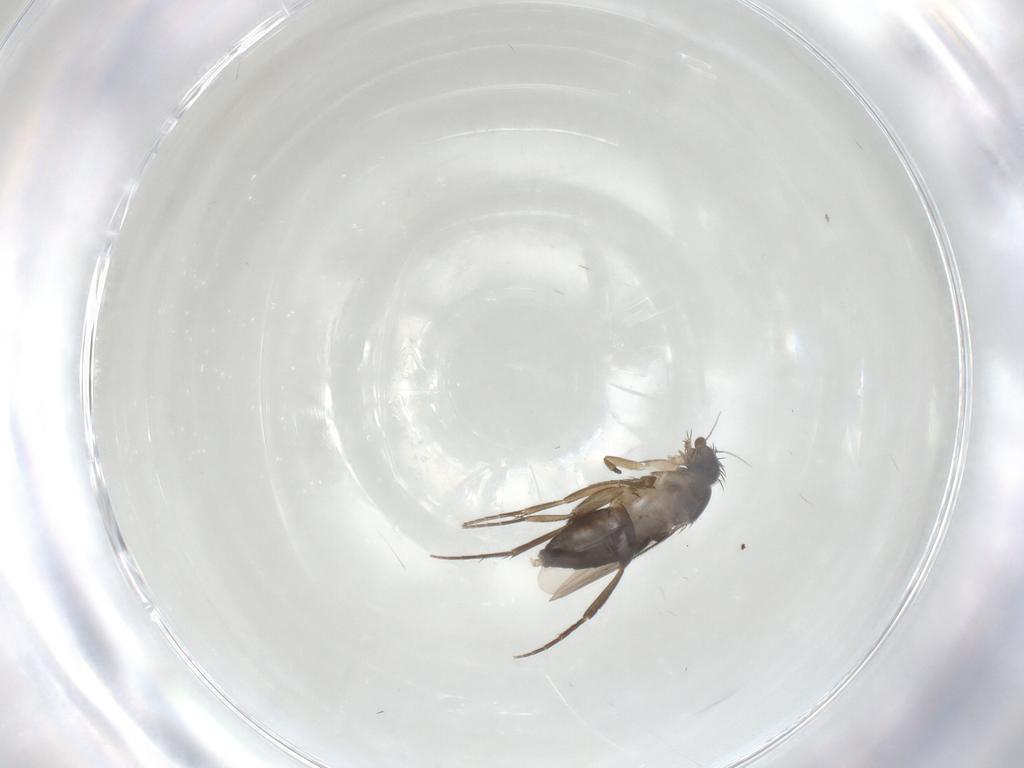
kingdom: Animalia
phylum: Arthropoda
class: Insecta
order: Diptera
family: Phoridae
